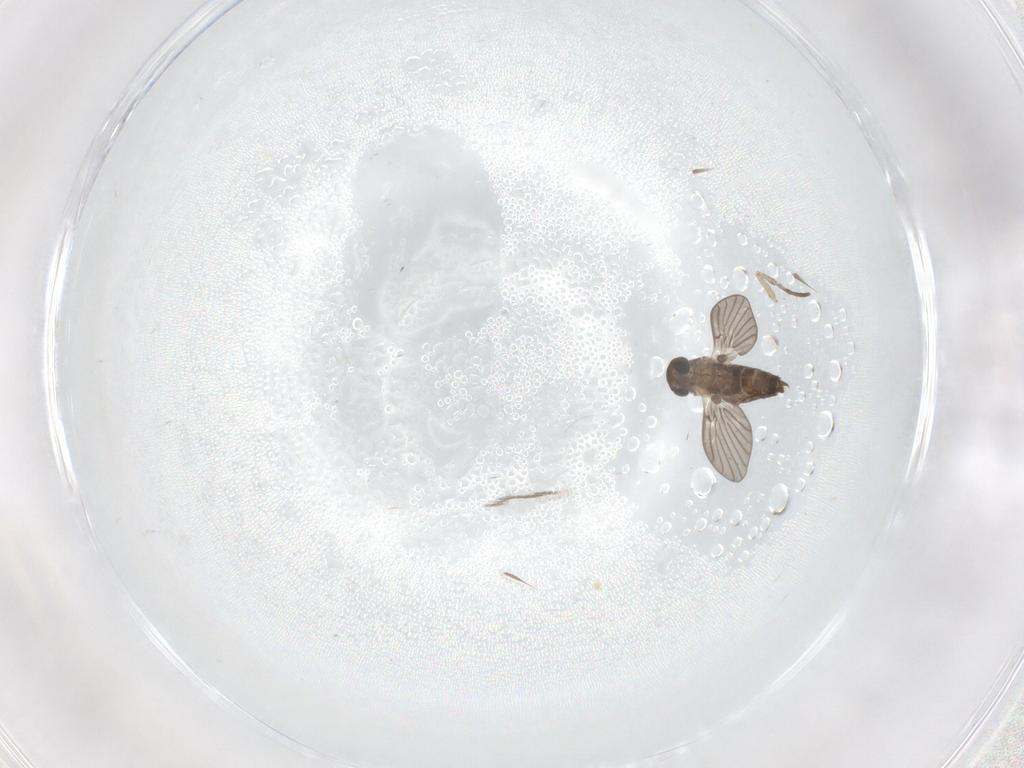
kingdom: Animalia
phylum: Arthropoda
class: Insecta
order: Diptera
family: Psychodidae
